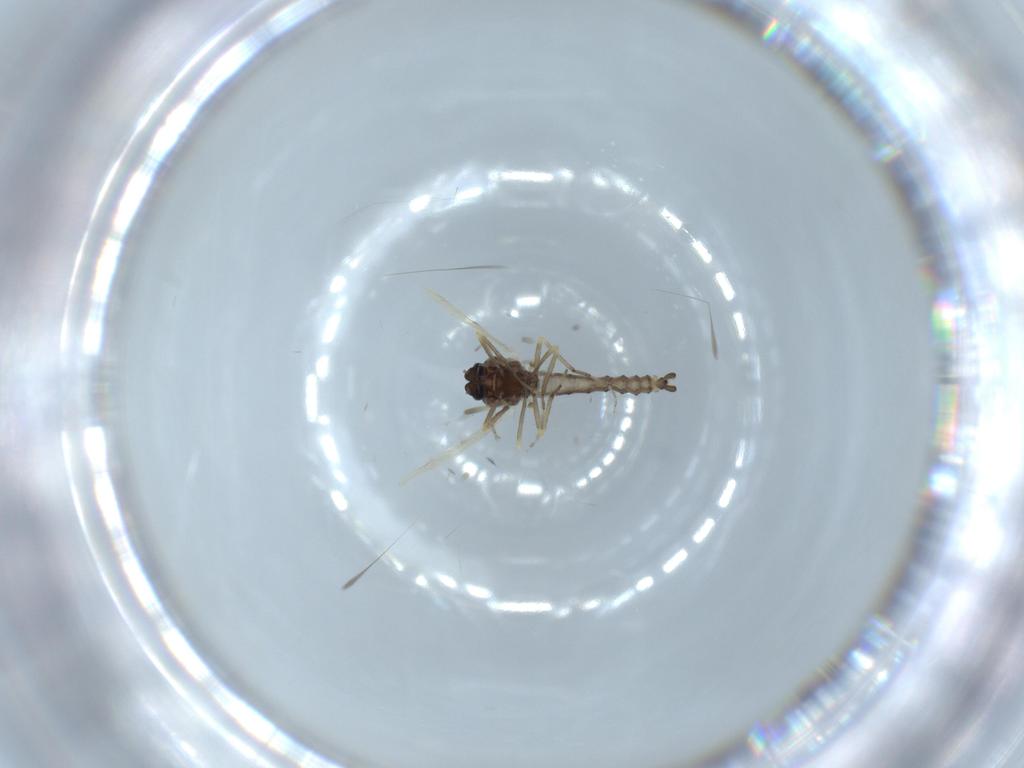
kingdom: Animalia
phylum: Arthropoda
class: Insecta
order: Diptera
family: Ceratopogonidae
